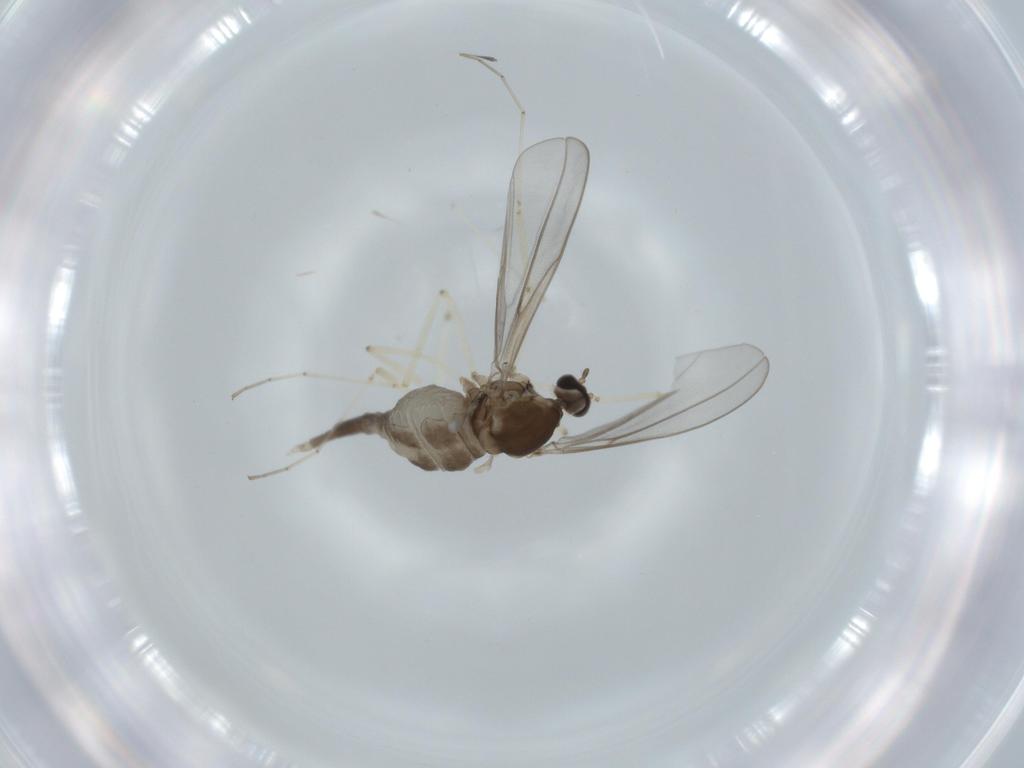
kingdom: Animalia
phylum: Arthropoda
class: Insecta
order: Diptera
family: Cecidomyiidae
